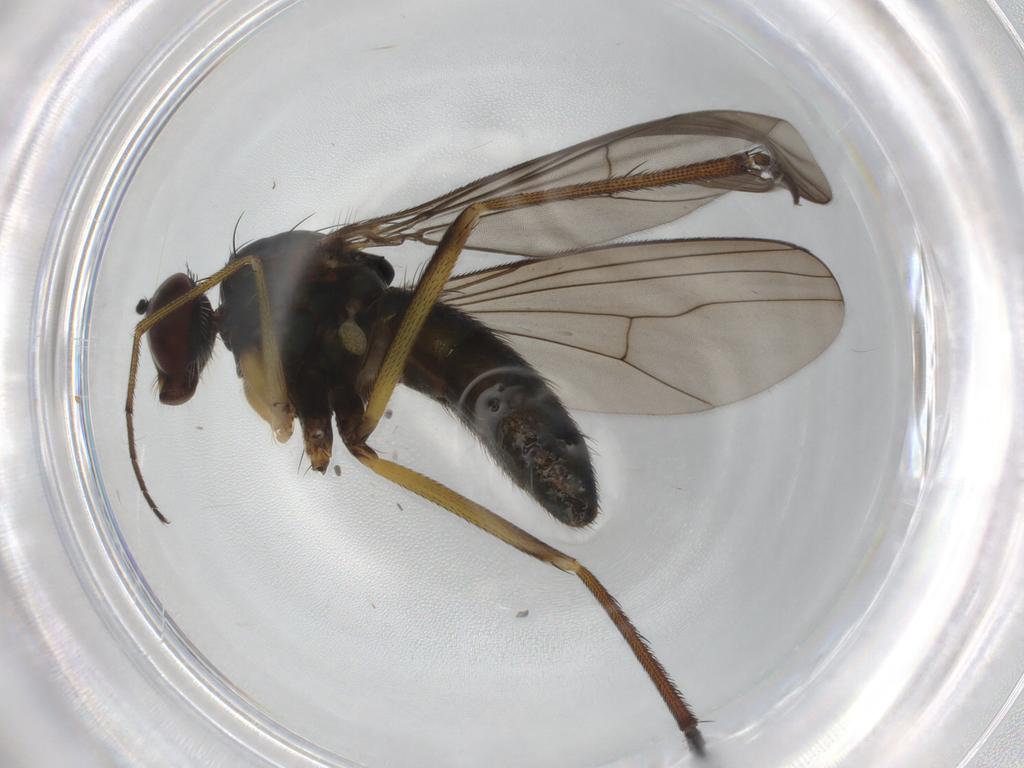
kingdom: Animalia
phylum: Arthropoda
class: Insecta
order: Diptera
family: Dolichopodidae
